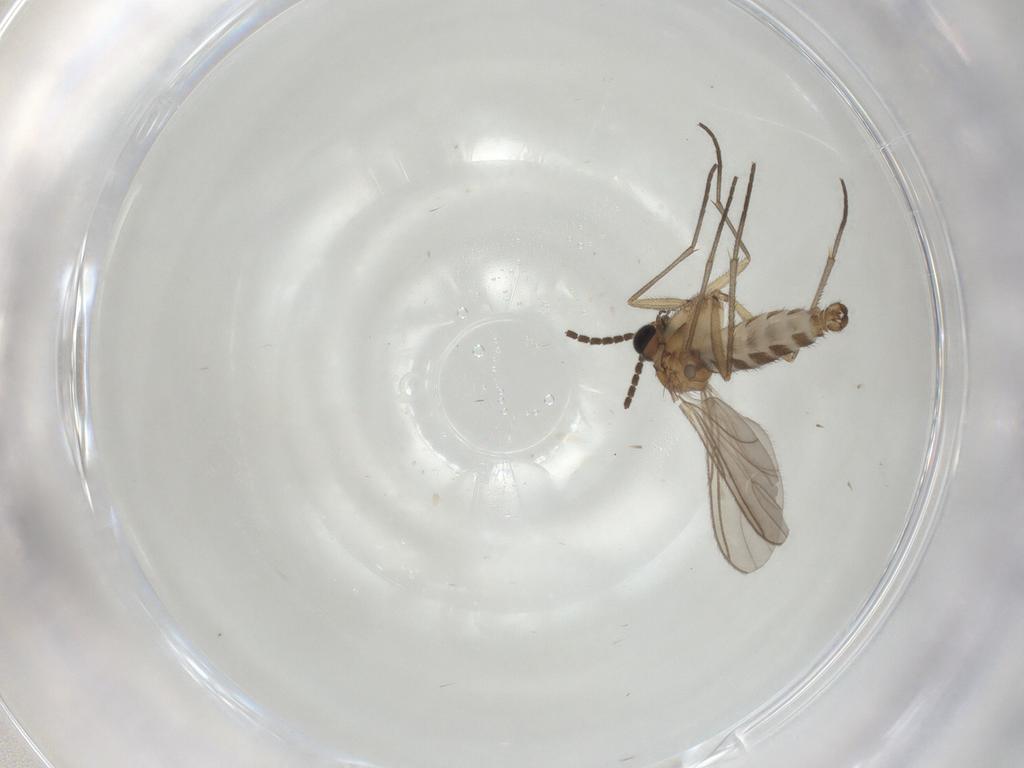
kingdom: Animalia
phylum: Arthropoda
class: Insecta
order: Diptera
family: Sciaridae
